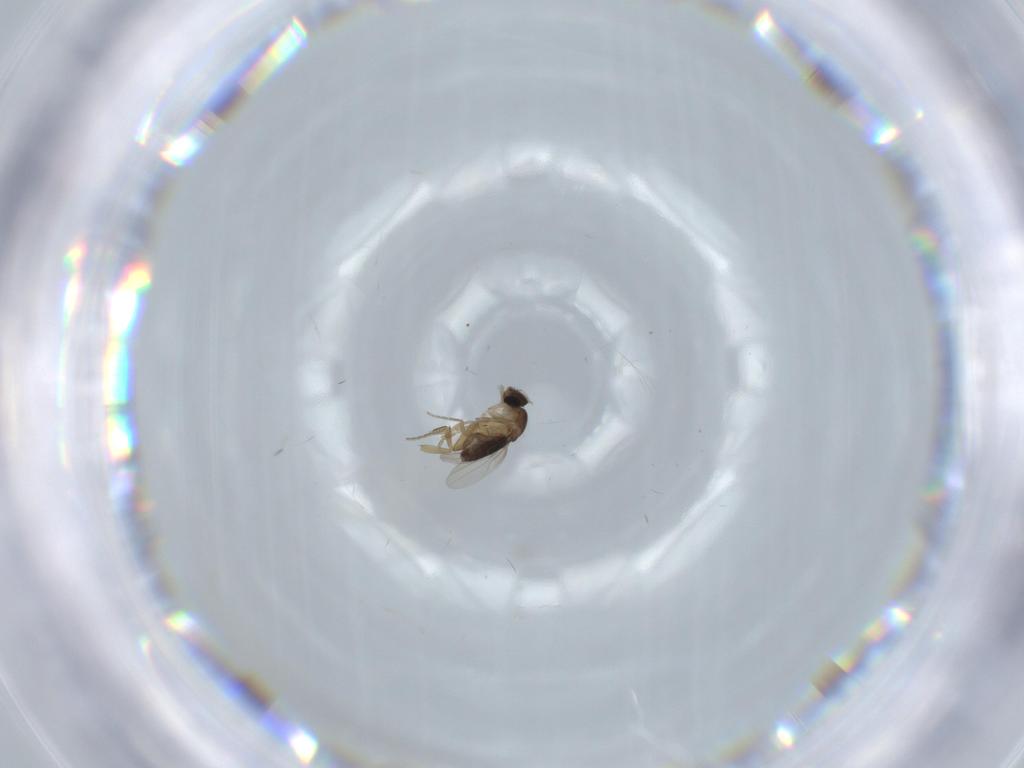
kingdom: Animalia
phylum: Arthropoda
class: Insecta
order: Diptera
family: Phoridae
